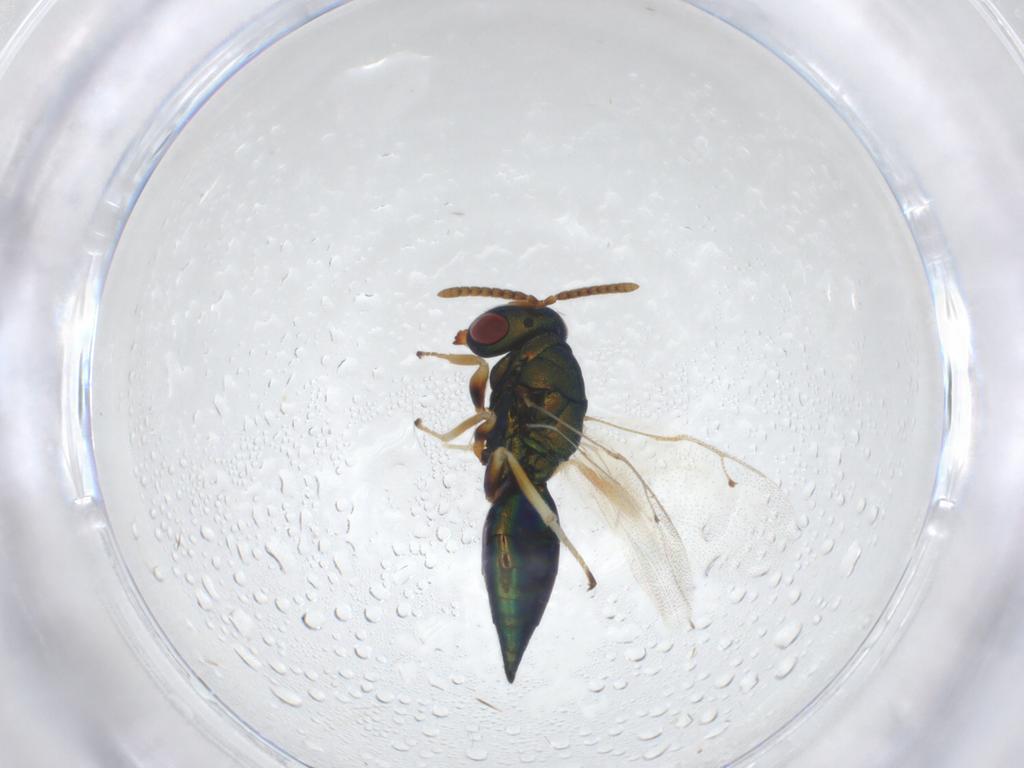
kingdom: Animalia
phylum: Arthropoda
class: Insecta
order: Hymenoptera
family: Pteromalidae
